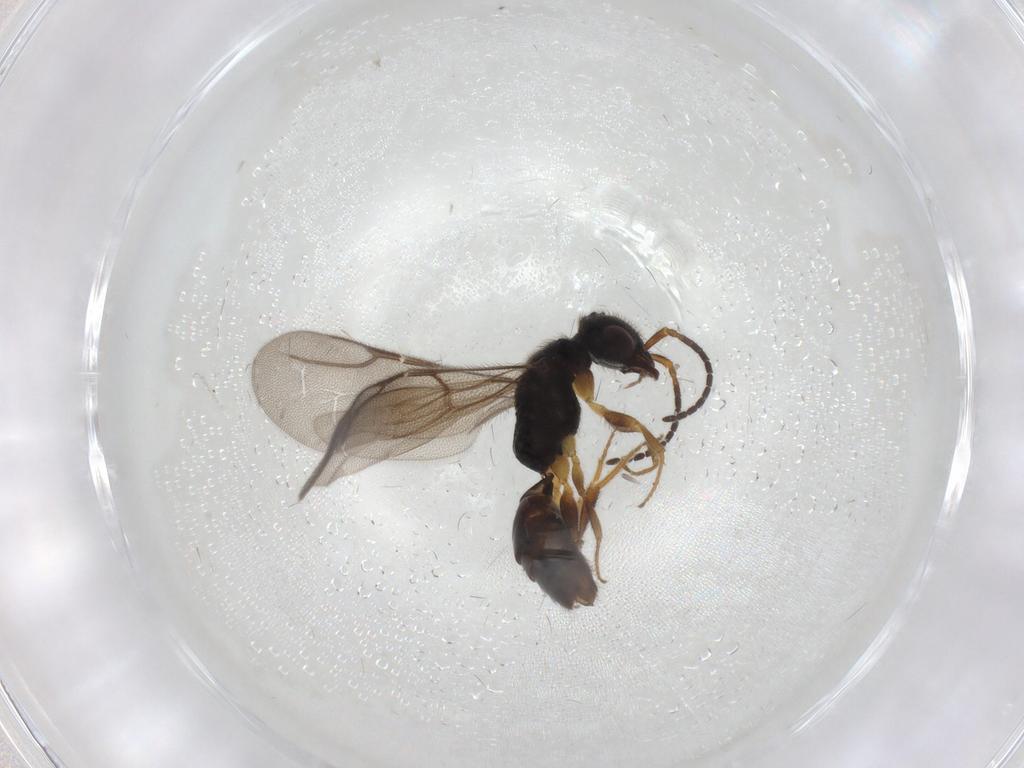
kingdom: Animalia
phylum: Arthropoda
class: Insecta
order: Hymenoptera
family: Bethylidae
